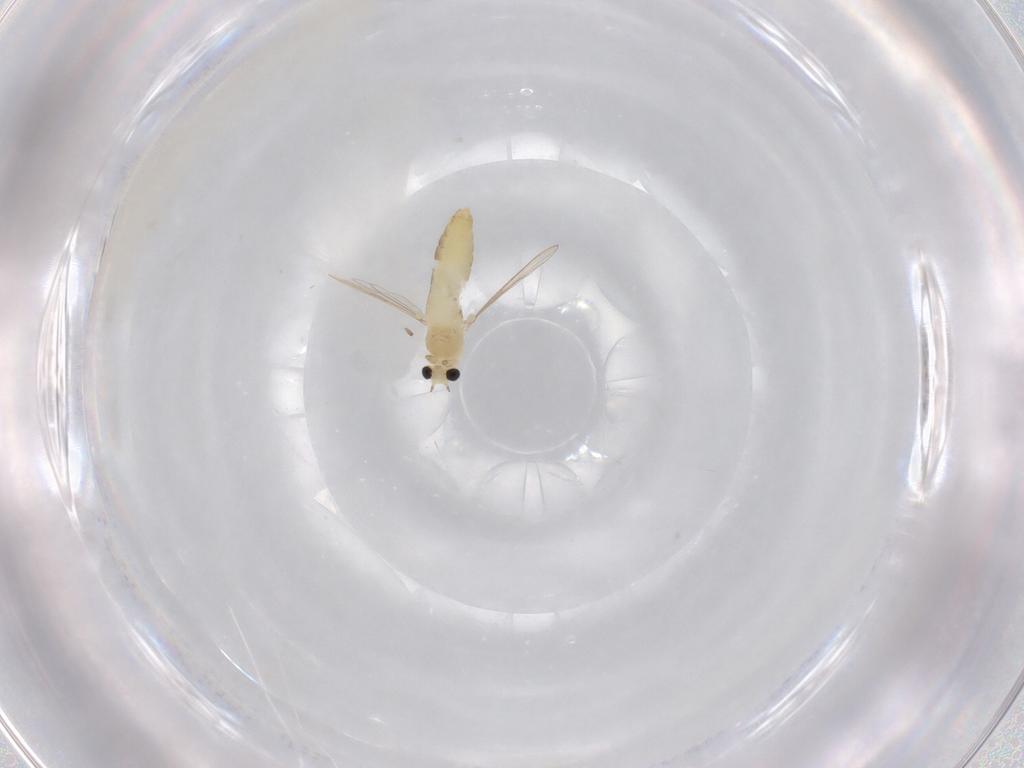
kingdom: Animalia
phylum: Arthropoda
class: Insecta
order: Diptera
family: Chironomidae
